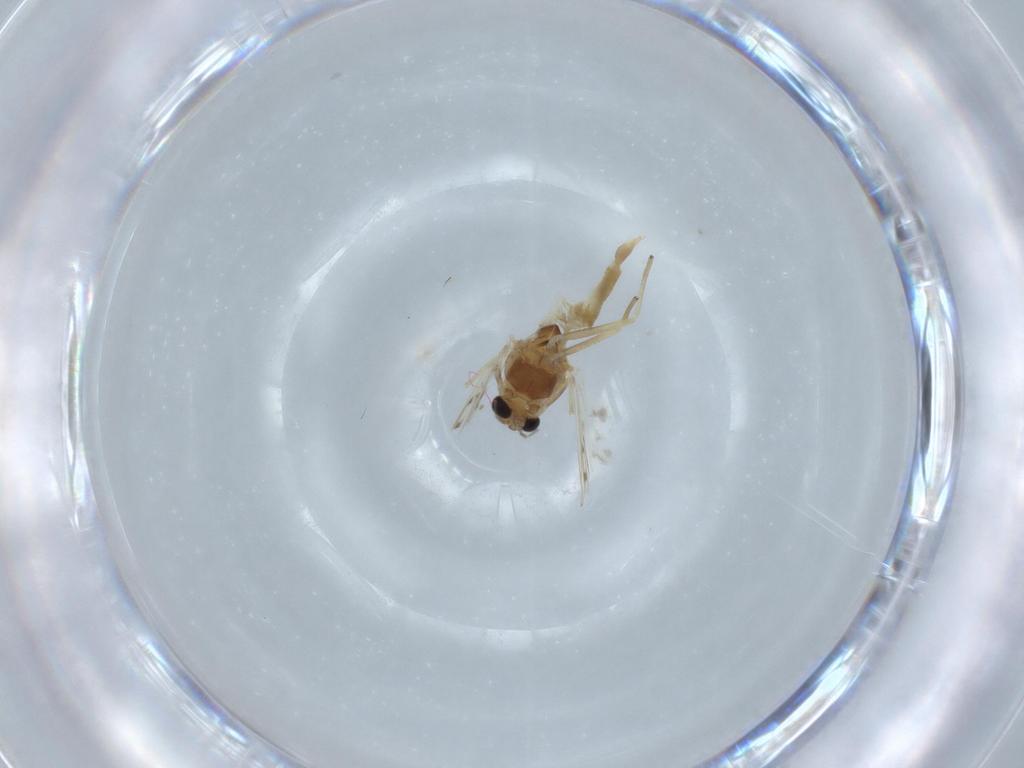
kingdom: Animalia
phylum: Arthropoda
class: Insecta
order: Diptera
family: Chironomidae
